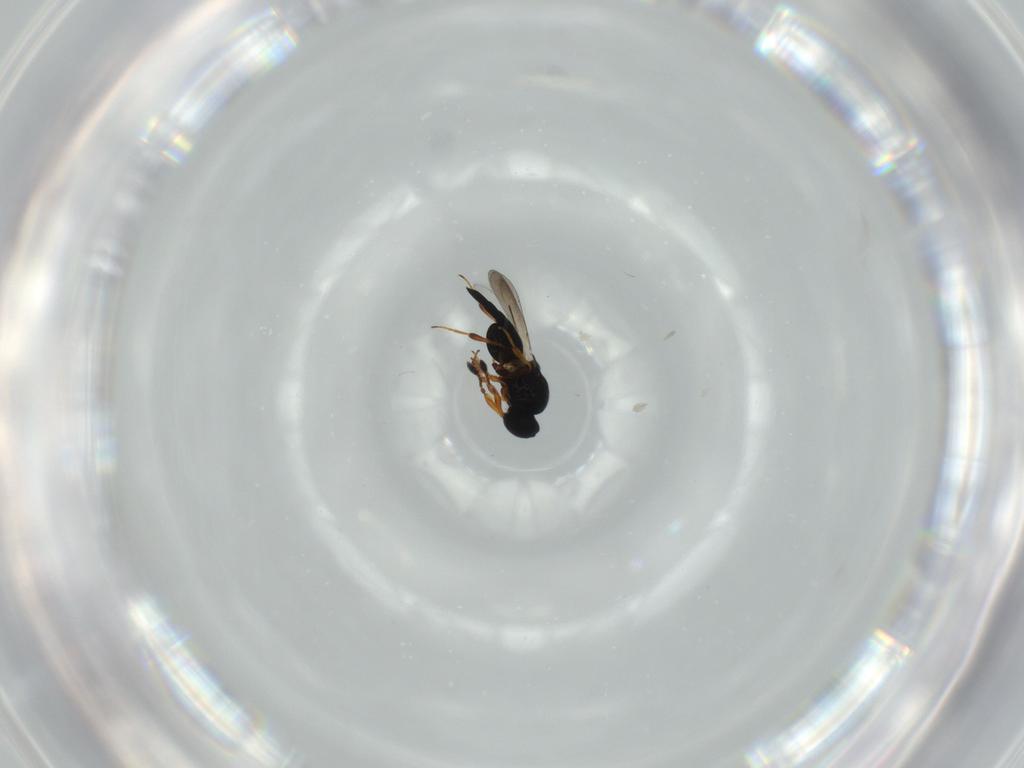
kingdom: Animalia
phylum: Arthropoda
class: Insecta
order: Hymenoptera
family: Platygastridae
